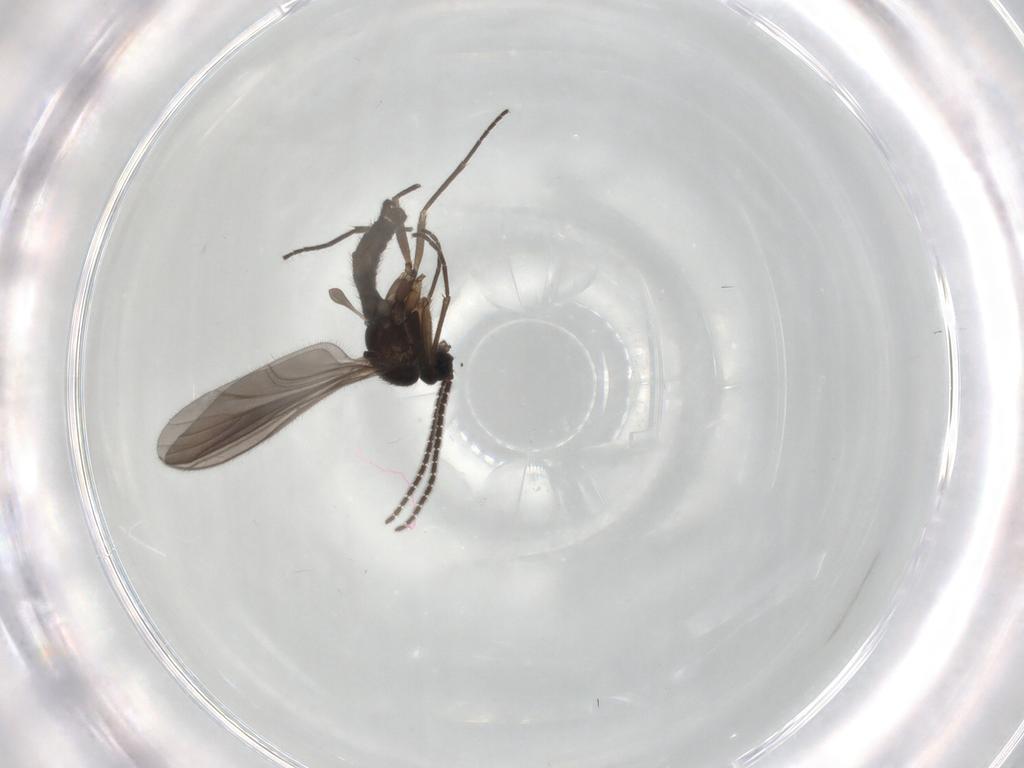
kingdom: Animalia
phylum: Arthropoda
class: Insecta
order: Diptera
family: Sciaridae
